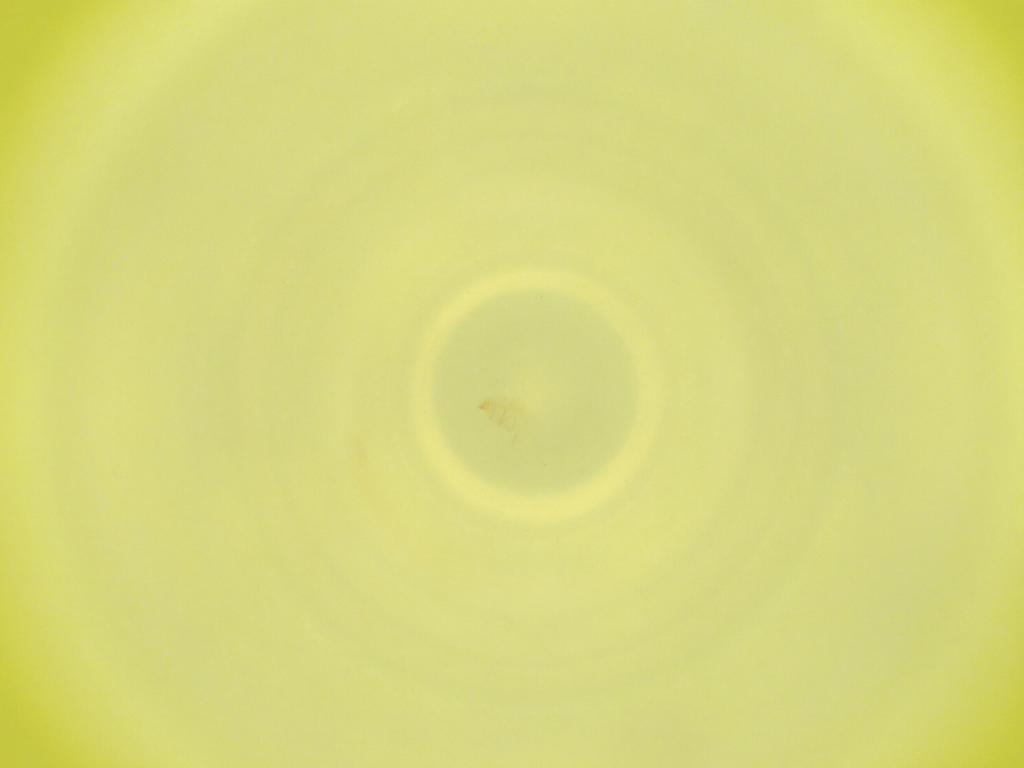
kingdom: Animalia
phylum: Arthropoda
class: Insecta
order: Diptera
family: Cecidomyiidae
